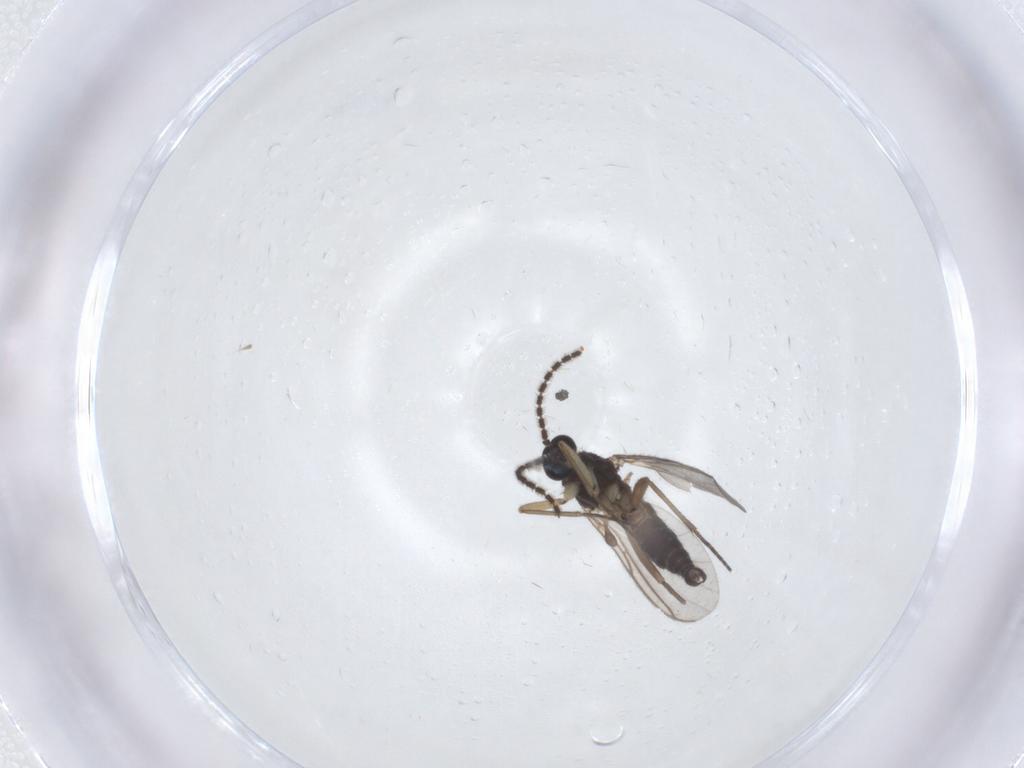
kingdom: Animalia
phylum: Arthropoda
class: Insecta
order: Diptera
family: Sciaridae
